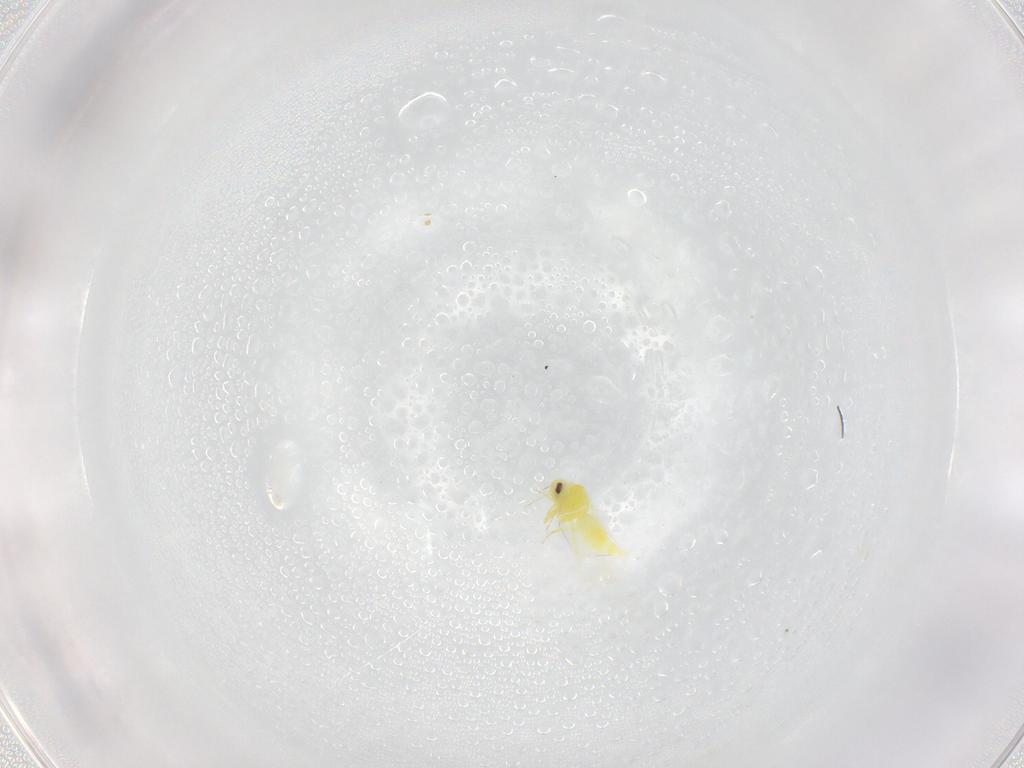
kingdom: Animalia
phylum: Arthropoda
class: Insecta
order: Hemiptera
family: Aleyrodidae
